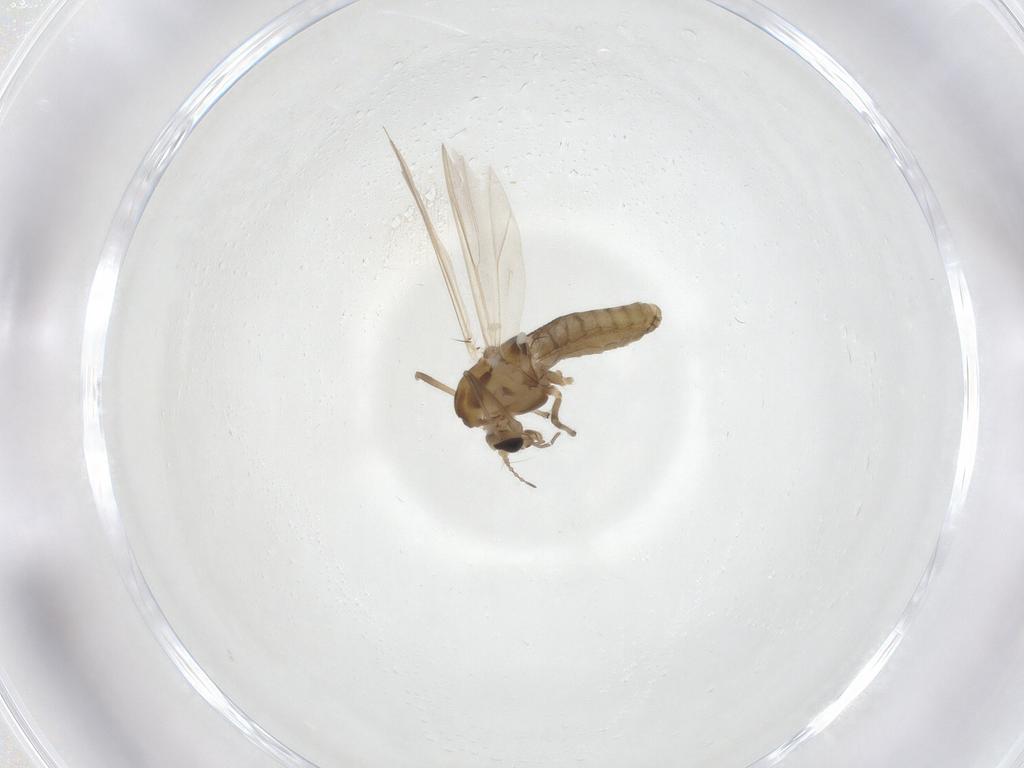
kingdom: Animalia
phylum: Arthropoda
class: Insecta
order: Diptera
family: Chironomidae
